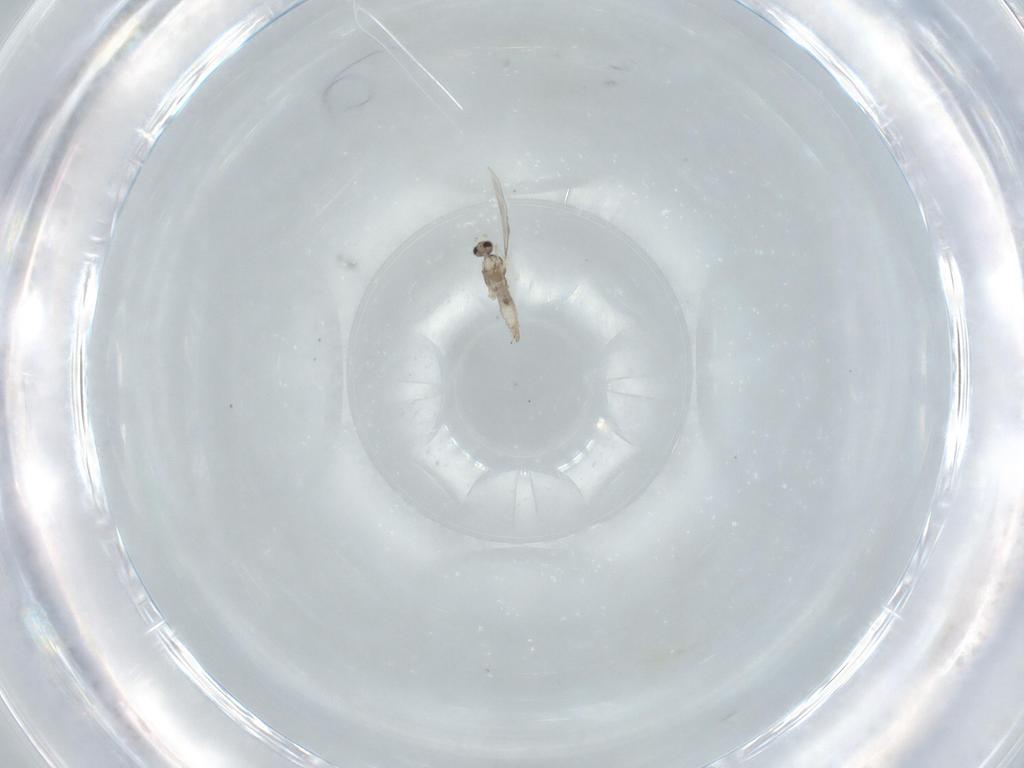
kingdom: Animalia
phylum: Arthropoda
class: Insecta
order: Diptera
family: Cecidomyiidae
